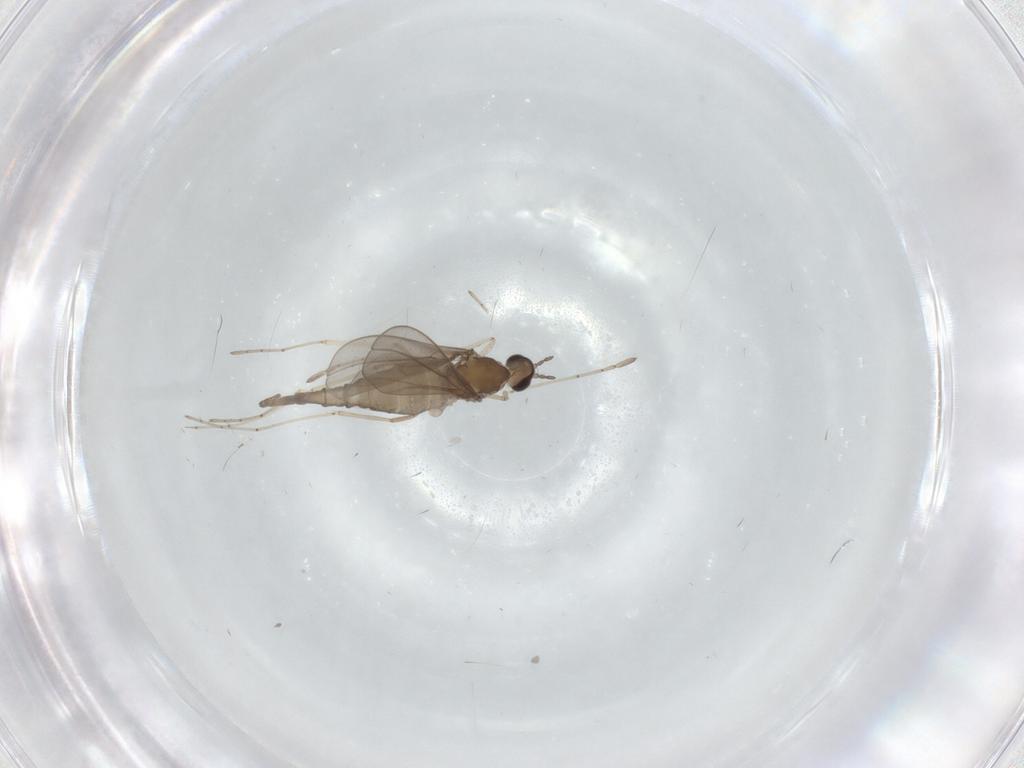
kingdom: Animalia
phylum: Arthropoda
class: Insecta
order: Diptera
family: Cecidomyiidae
